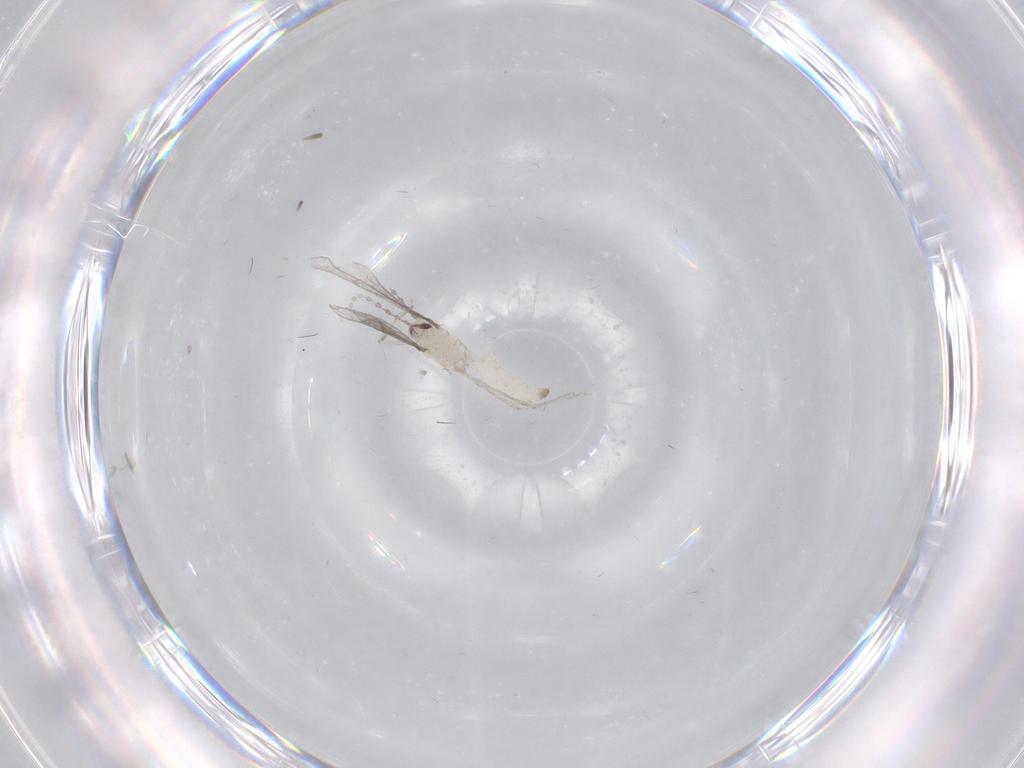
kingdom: Animalia
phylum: Arthropoda
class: Insecta
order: Diptera
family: Cecidomyiidae
